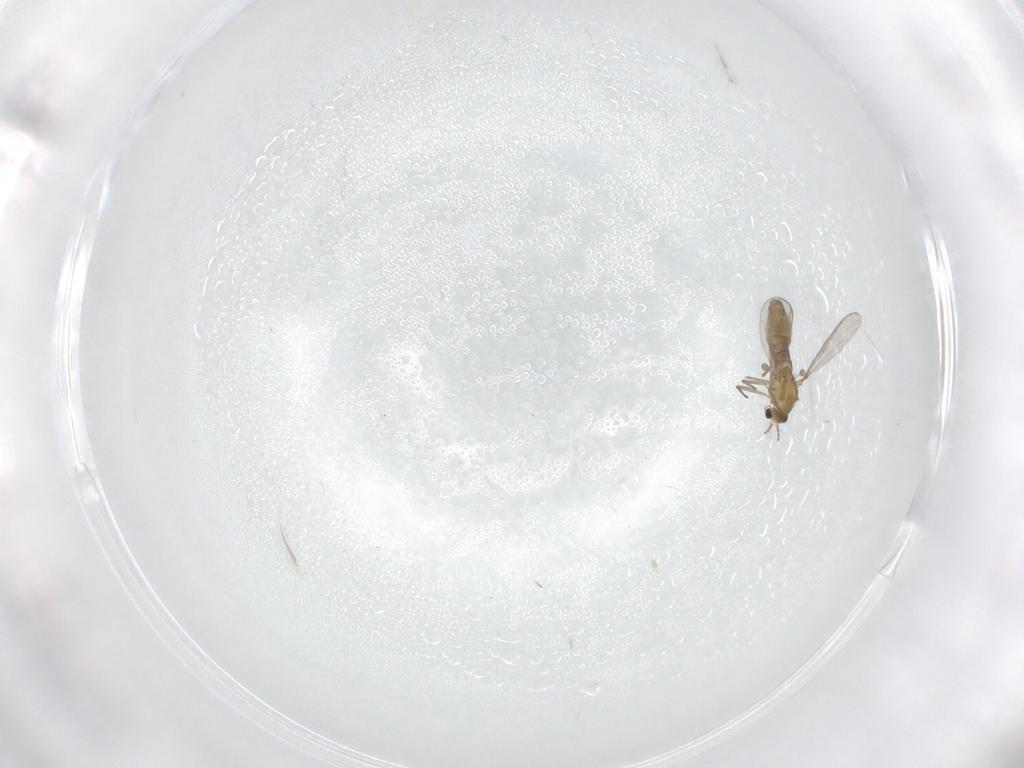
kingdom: Animalia
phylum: Arthropoda
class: Insecta
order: Diptera
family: Chironomidae
